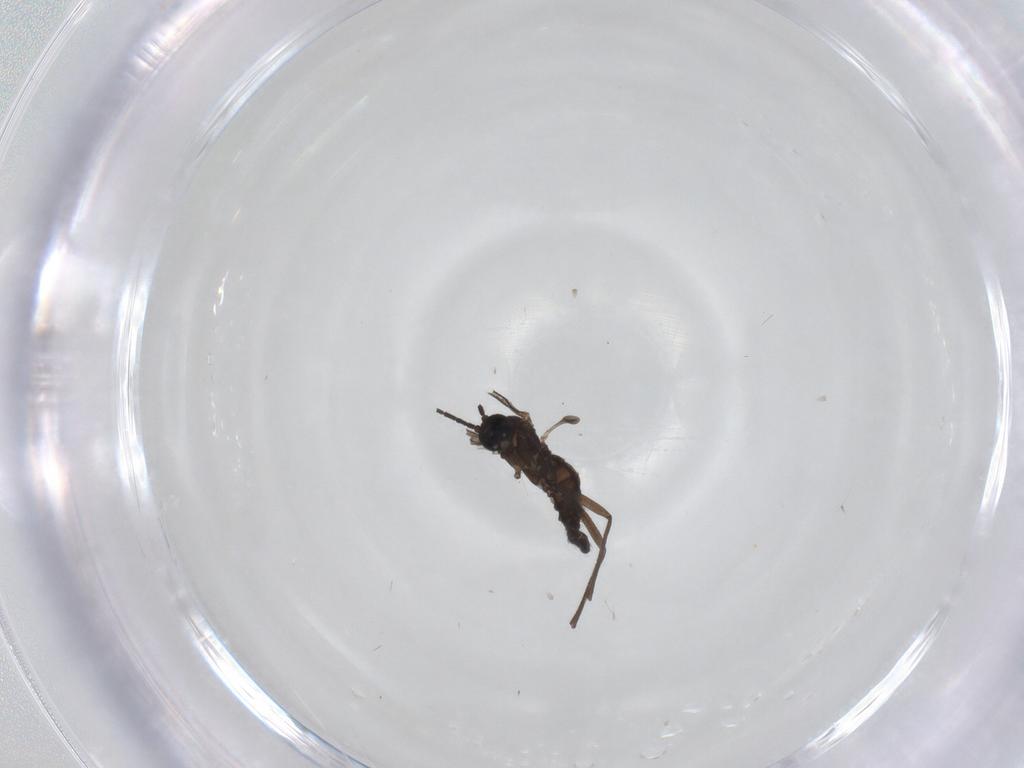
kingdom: Animalia
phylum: Arthropoda
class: Insecta
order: Diptera
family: Sciaridae
